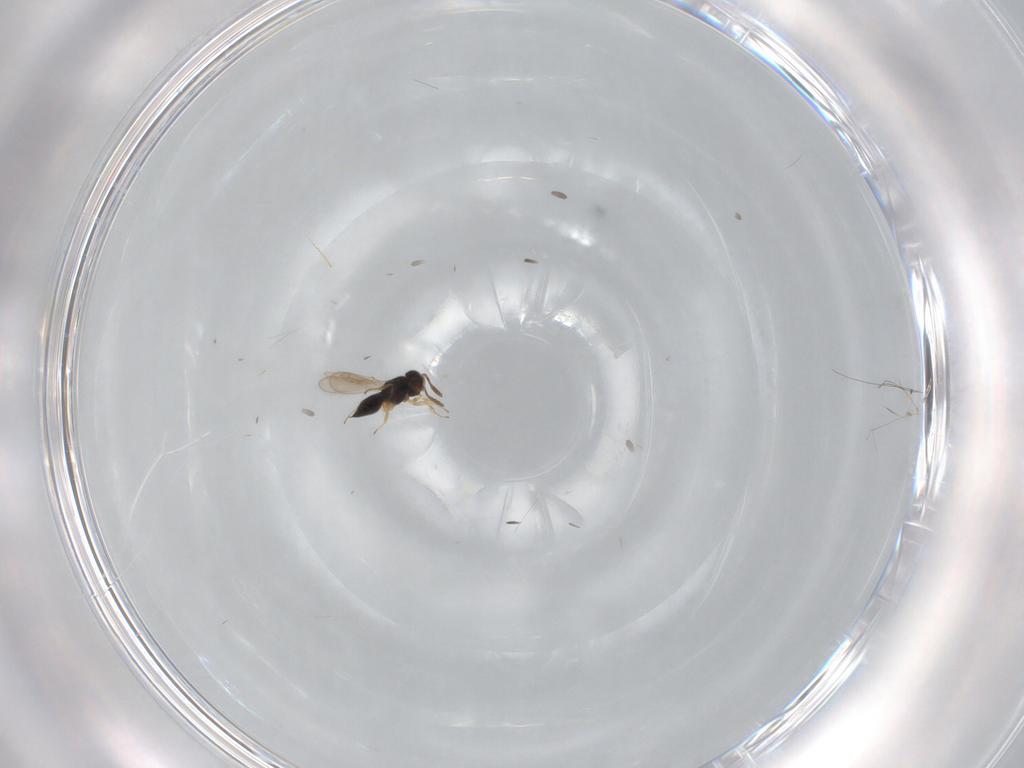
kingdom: Animalia
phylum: Arthropoda
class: Insecta
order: Hymenoptera
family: Scelionidae
